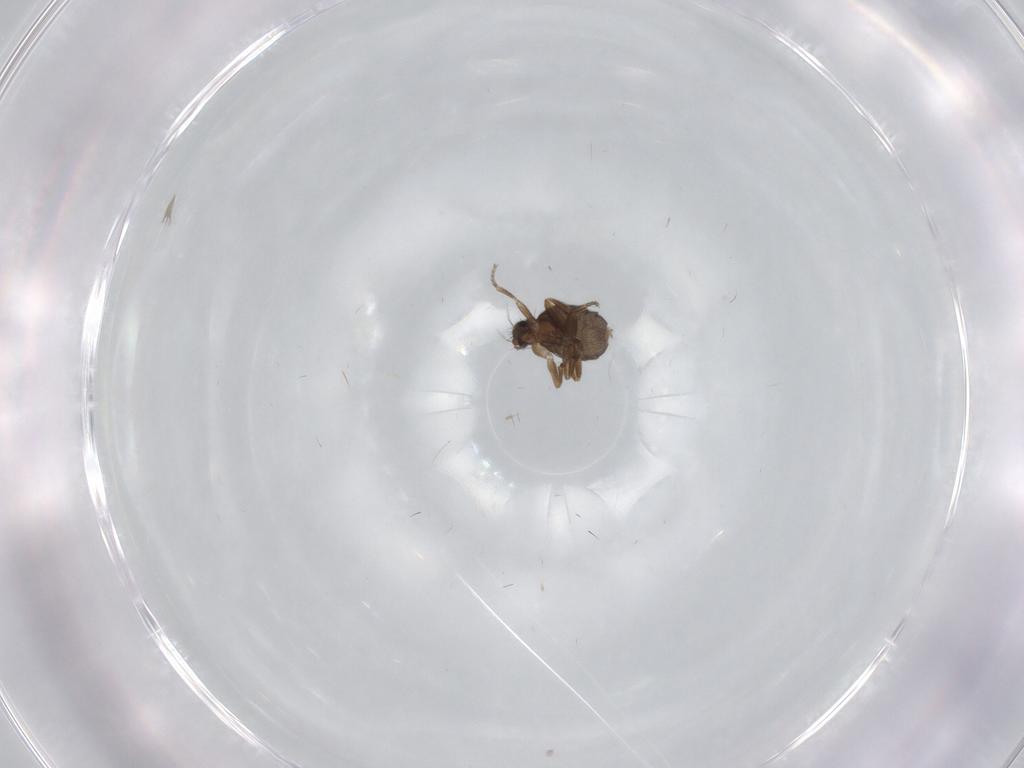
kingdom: Animalia
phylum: Arthropoda
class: Insecta
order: Diptera
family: Phoridae
